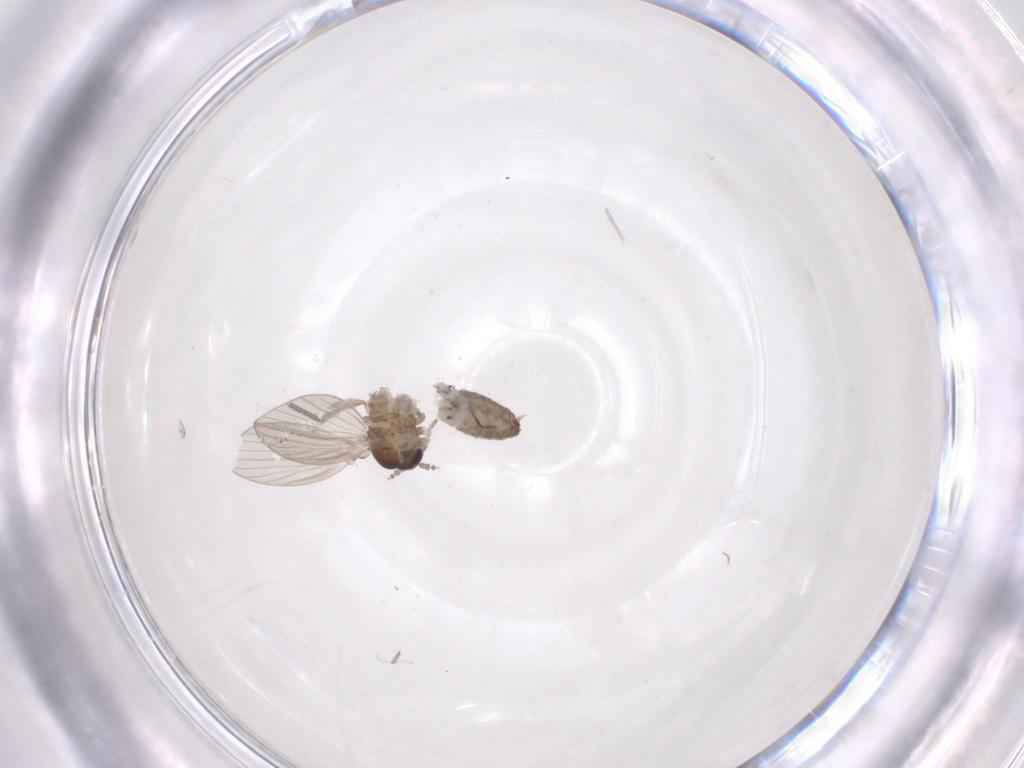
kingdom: Animalia
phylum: Arthropoda
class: Insecta
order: Diptera
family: Psychodidae
